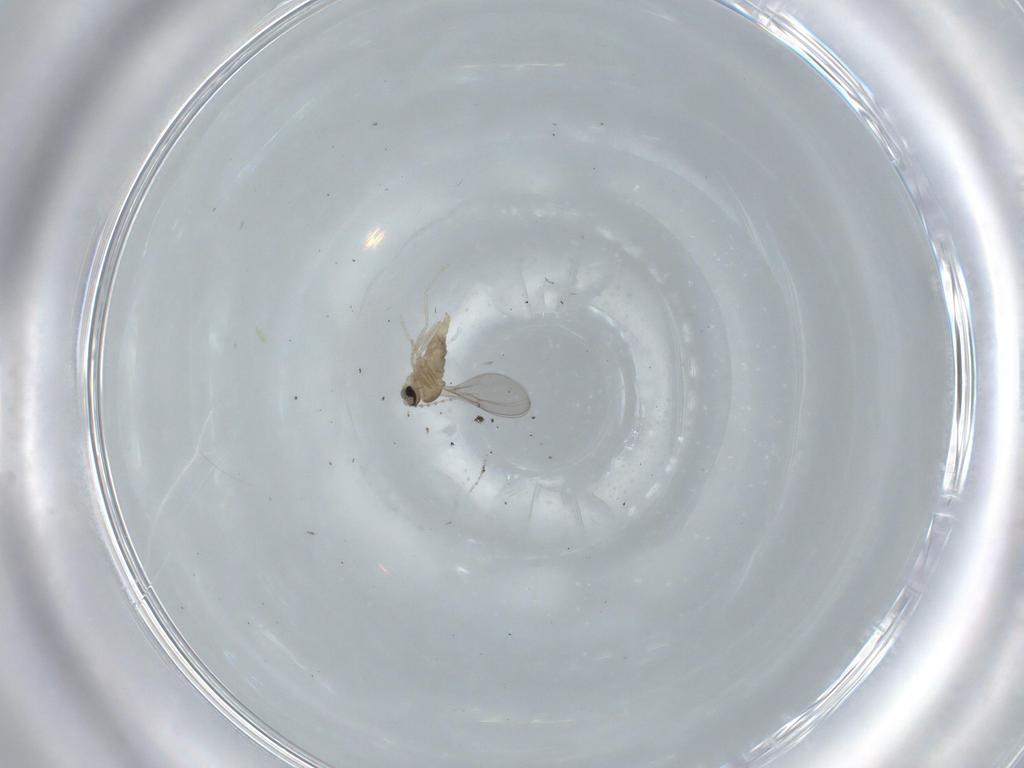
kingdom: Animalia
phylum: Arthropoda
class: Insecta
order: Diptera
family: Cecidomyiidae
